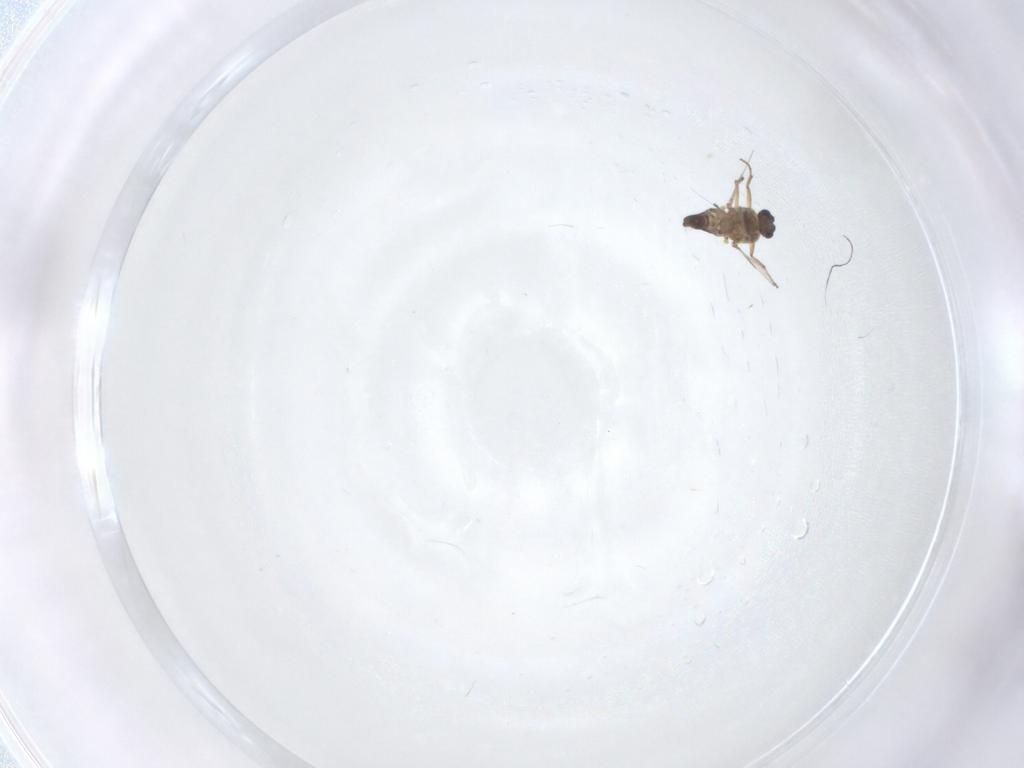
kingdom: Animalia
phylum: Arthropoda
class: Insecta
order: Diptera
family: Ceratopogonidae
